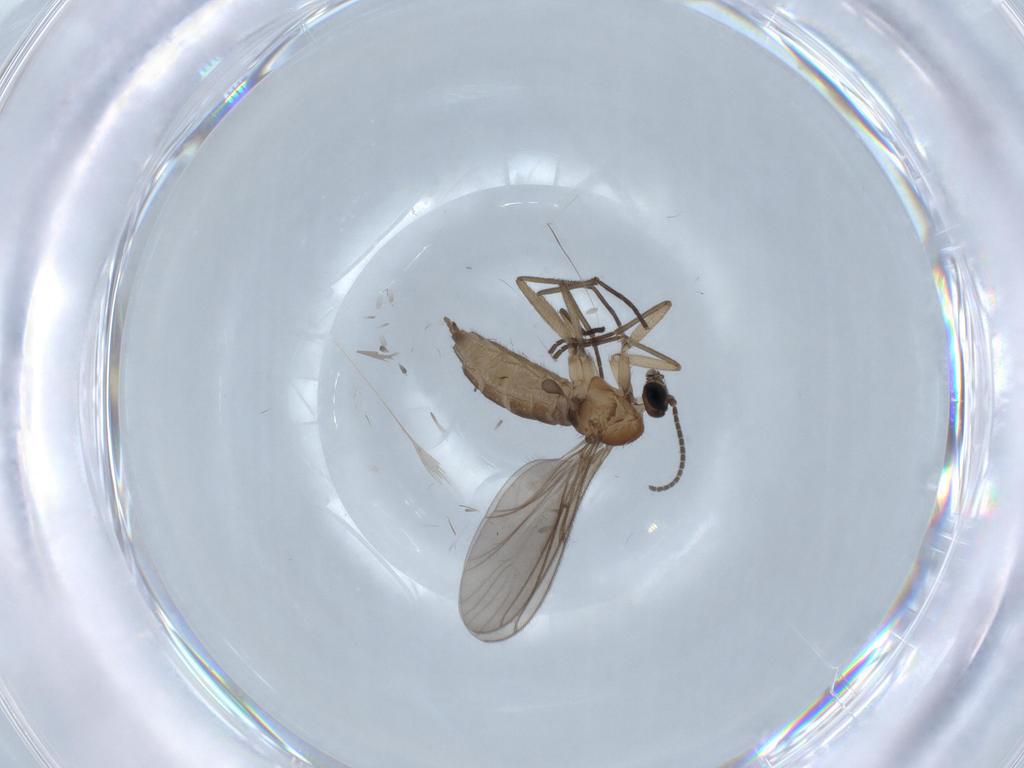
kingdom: Animalia
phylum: Arthropoda
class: Insecta
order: Diptera
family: Sciaridae
